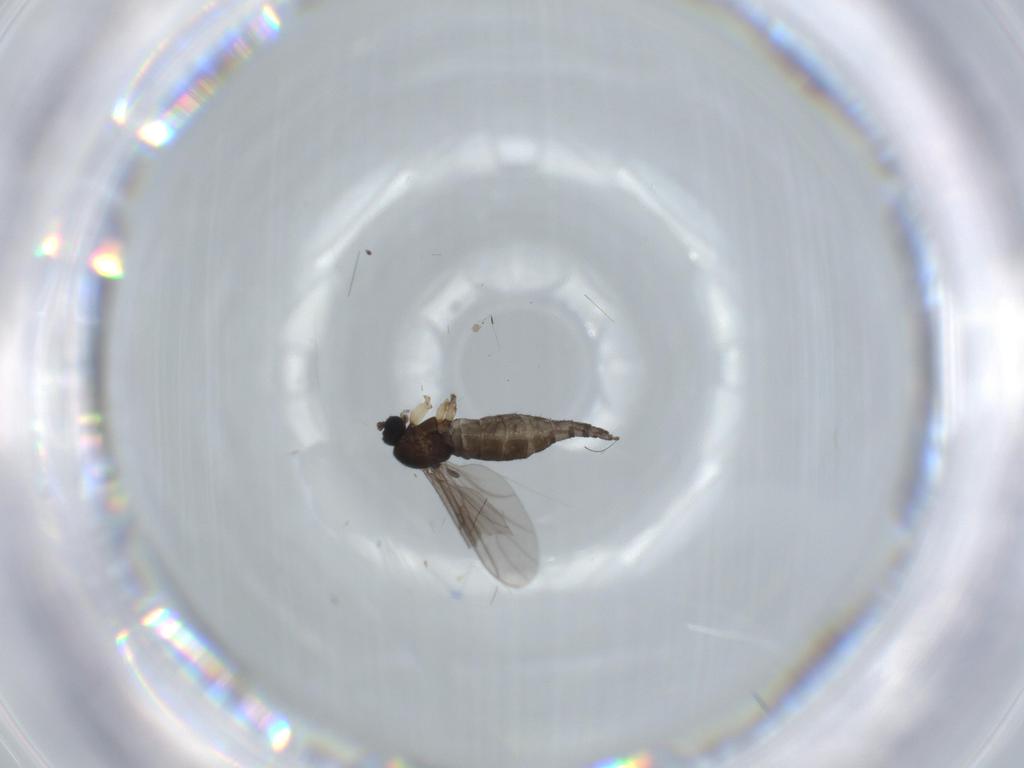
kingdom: Animalia
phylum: Arthropoda
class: Insecta
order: Diptera
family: Sciaridae
